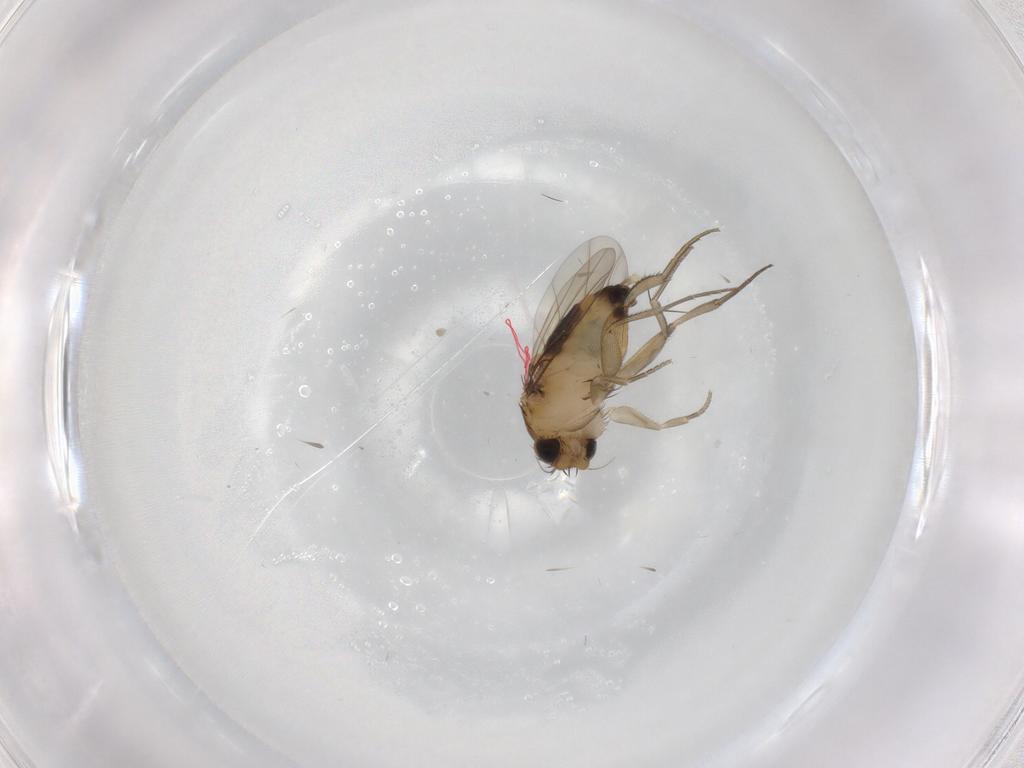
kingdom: Animalia
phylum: Arthropoda
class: Insecta
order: Diptera
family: Phoridae
